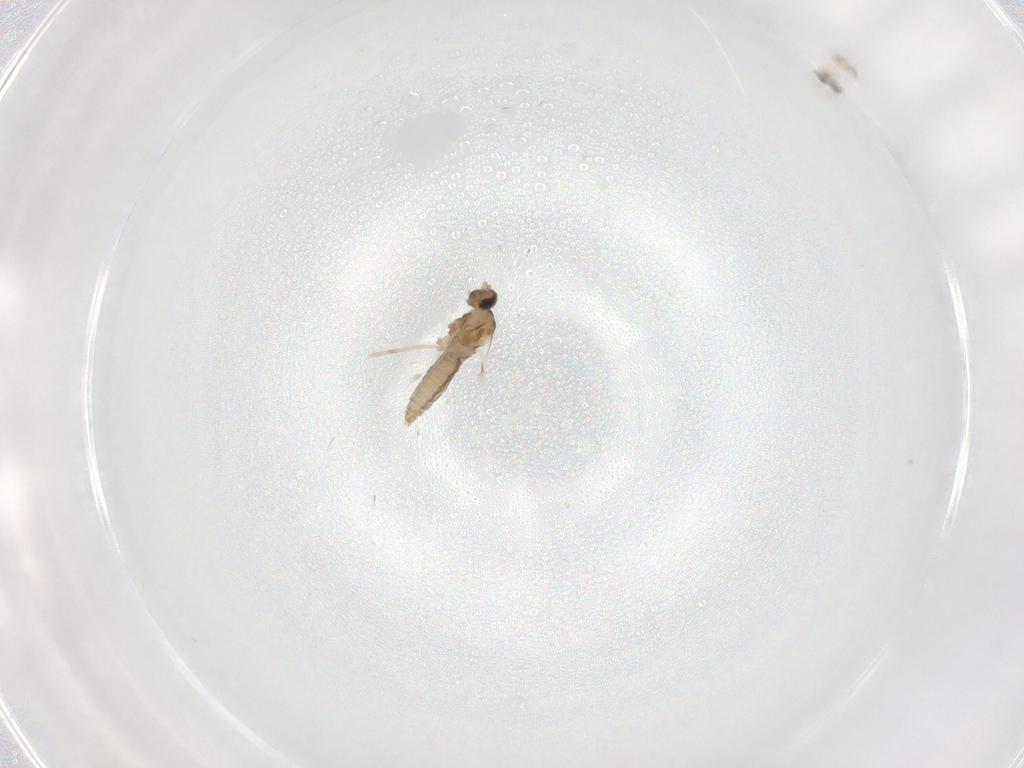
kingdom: Animalia
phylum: Arthropoda
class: Insecta
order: Diptera
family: Cecidomyiidae
